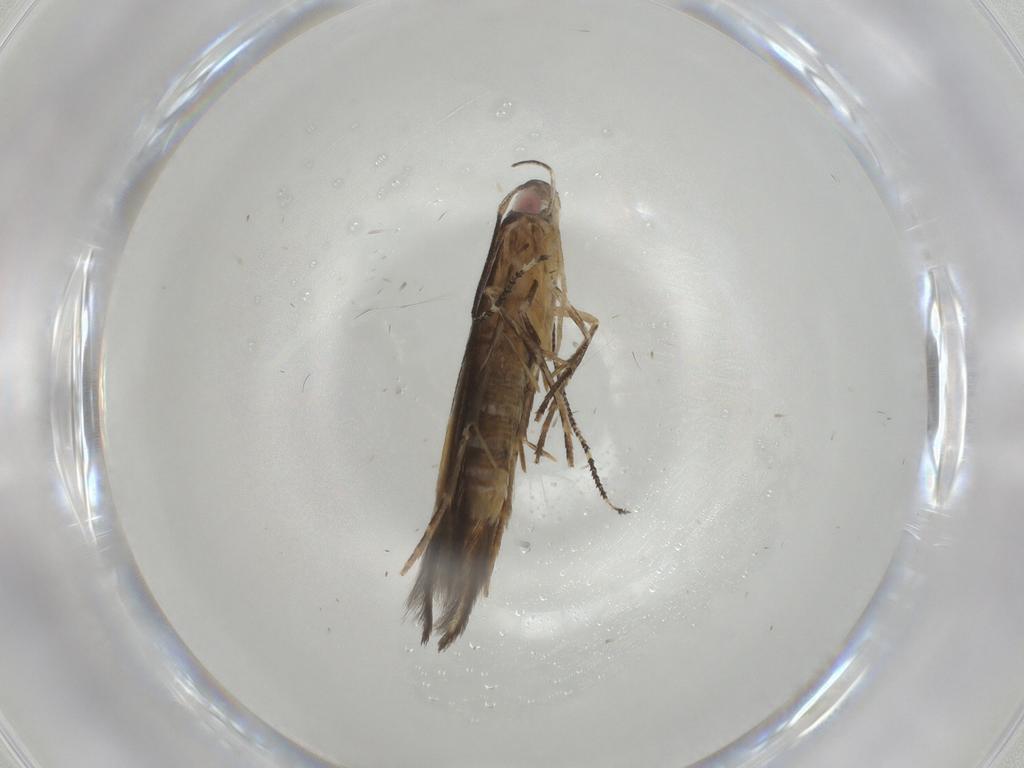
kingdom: Animalia
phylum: Arthropoda
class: Insecta
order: Lepidoptera
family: Cosmopterigidae
